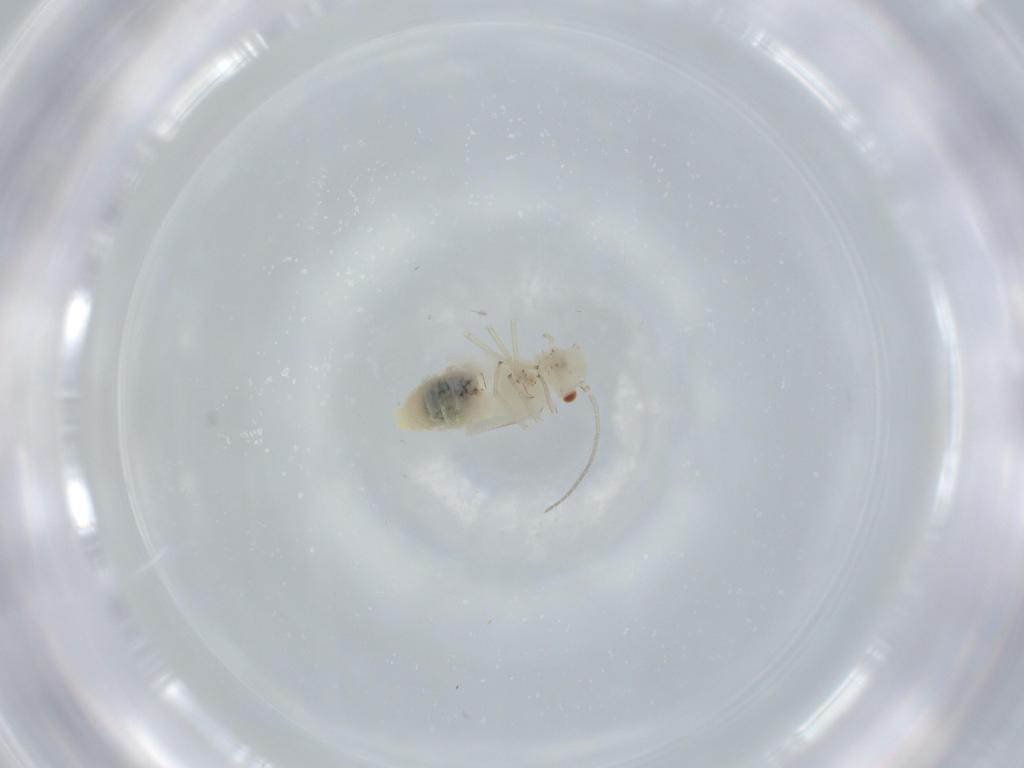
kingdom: Animalia
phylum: Arthropoda
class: Insecta
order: Psocodea
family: Caeciliusidae
